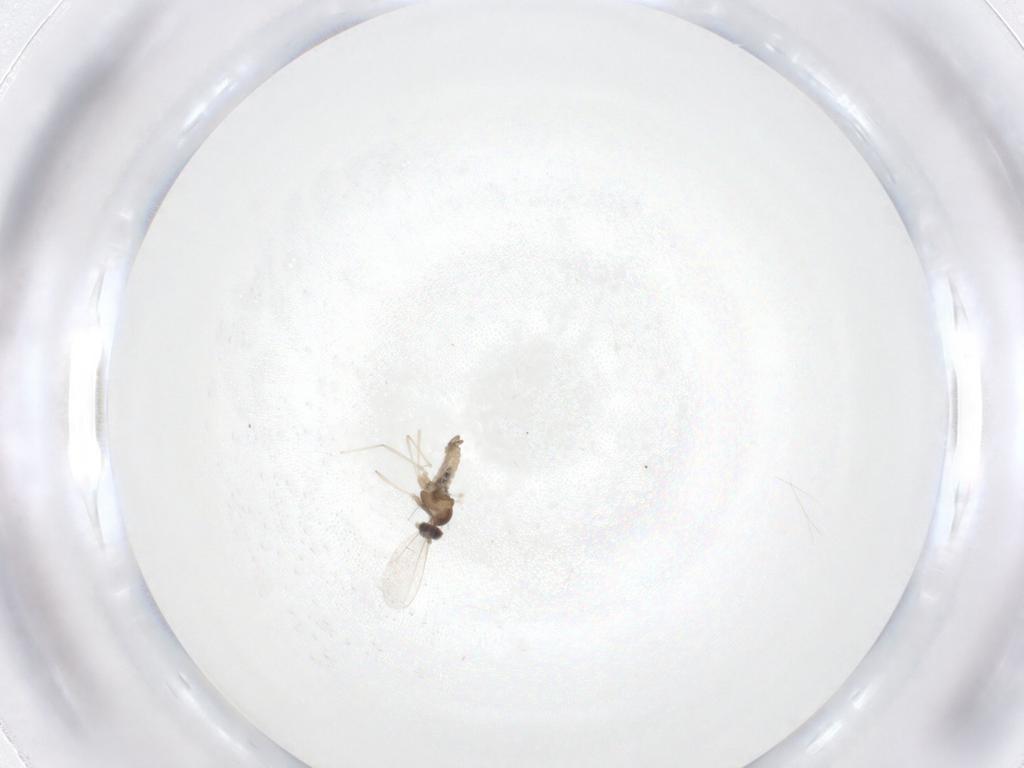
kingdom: Animalia
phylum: Arthropoda
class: Insecta
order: Diptera
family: Cecidomyiidae
